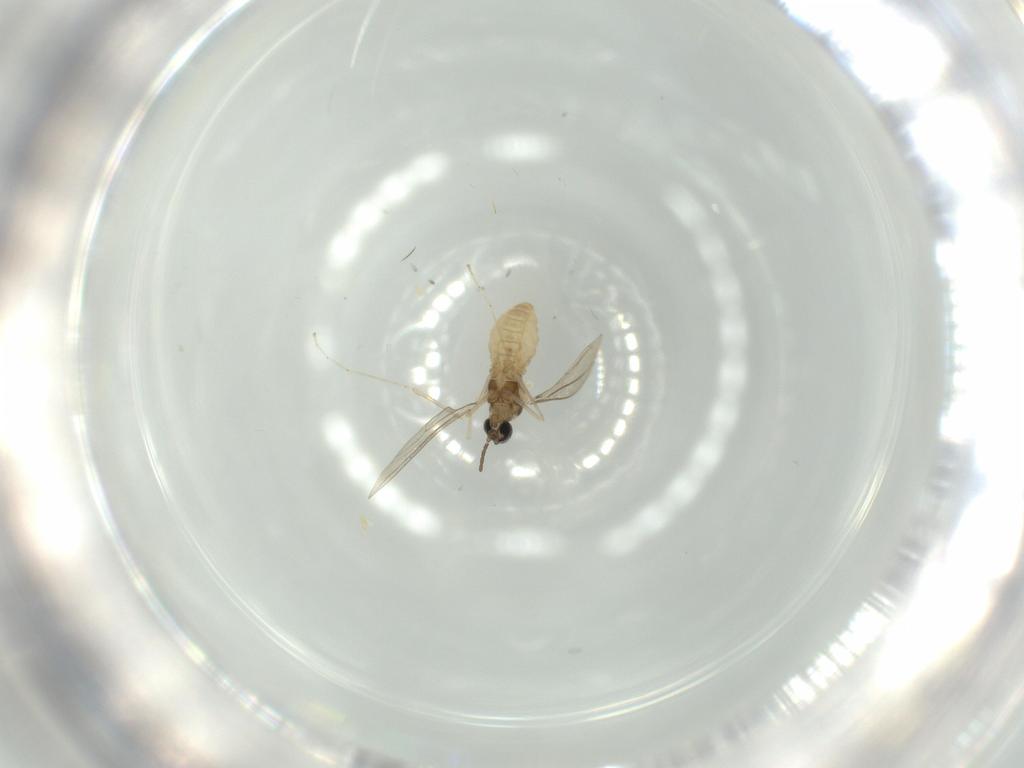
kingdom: Animalia
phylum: Arthropoda
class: Insecta
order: Diptera
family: Cecidomyiidae
